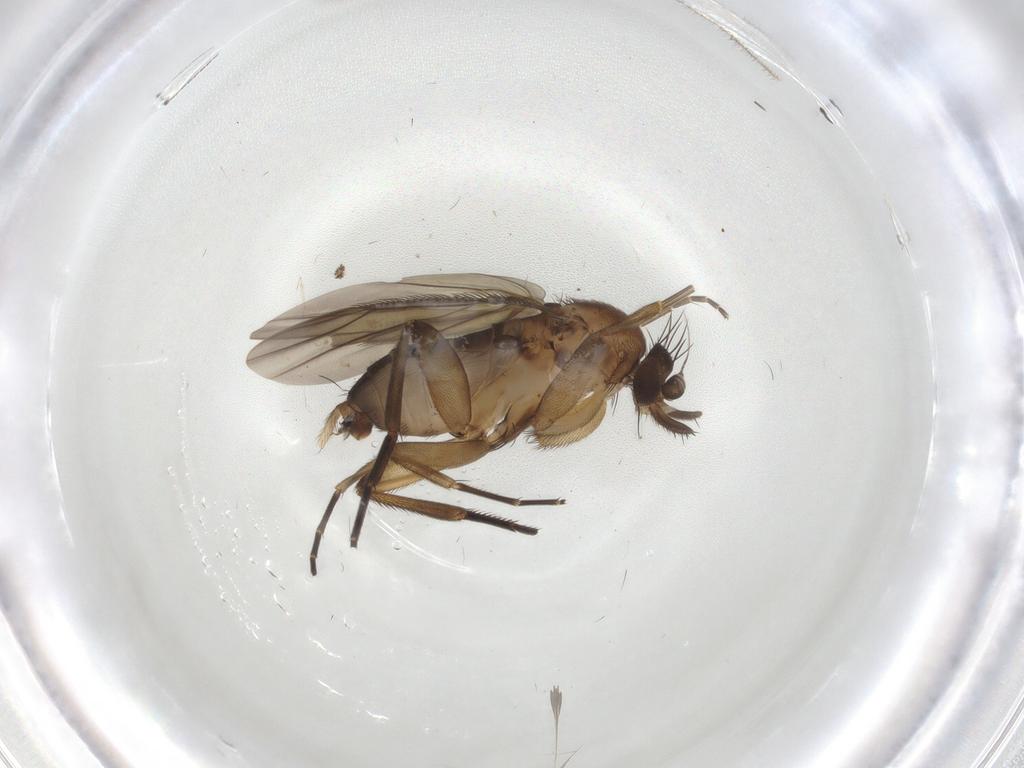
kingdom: Animalia
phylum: Arthropoda
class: Insecta
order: Diptera
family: Phoridae
